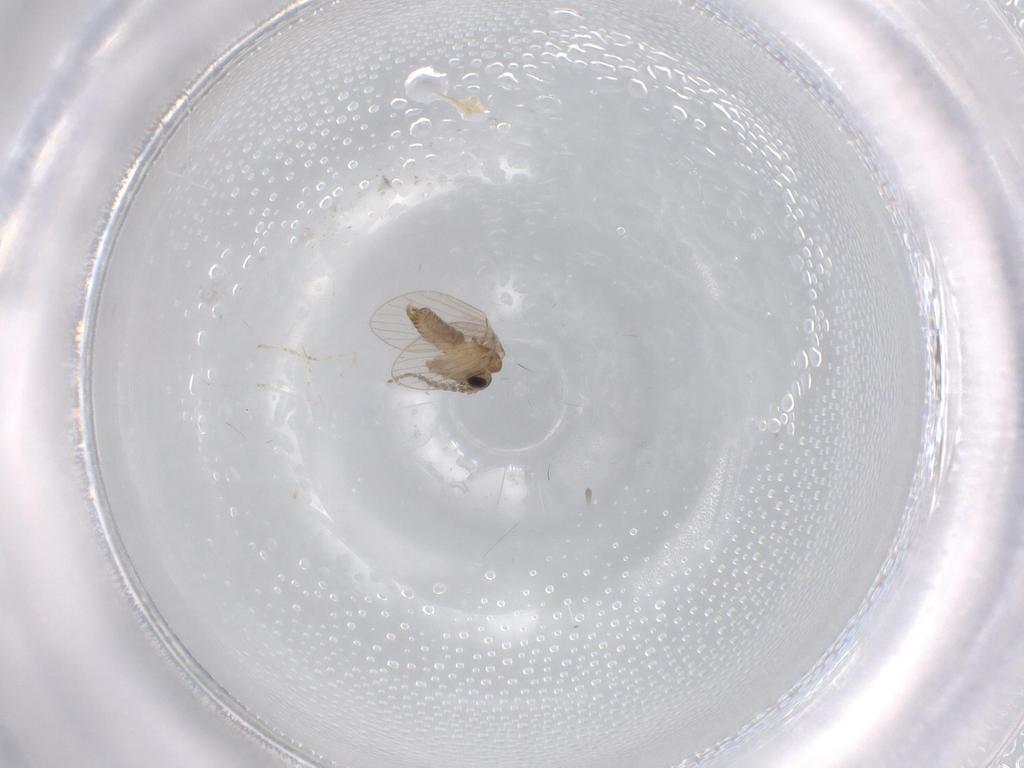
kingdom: Animalia
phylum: Arthropoda
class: Insecta
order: Diptera
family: Psychodidae
